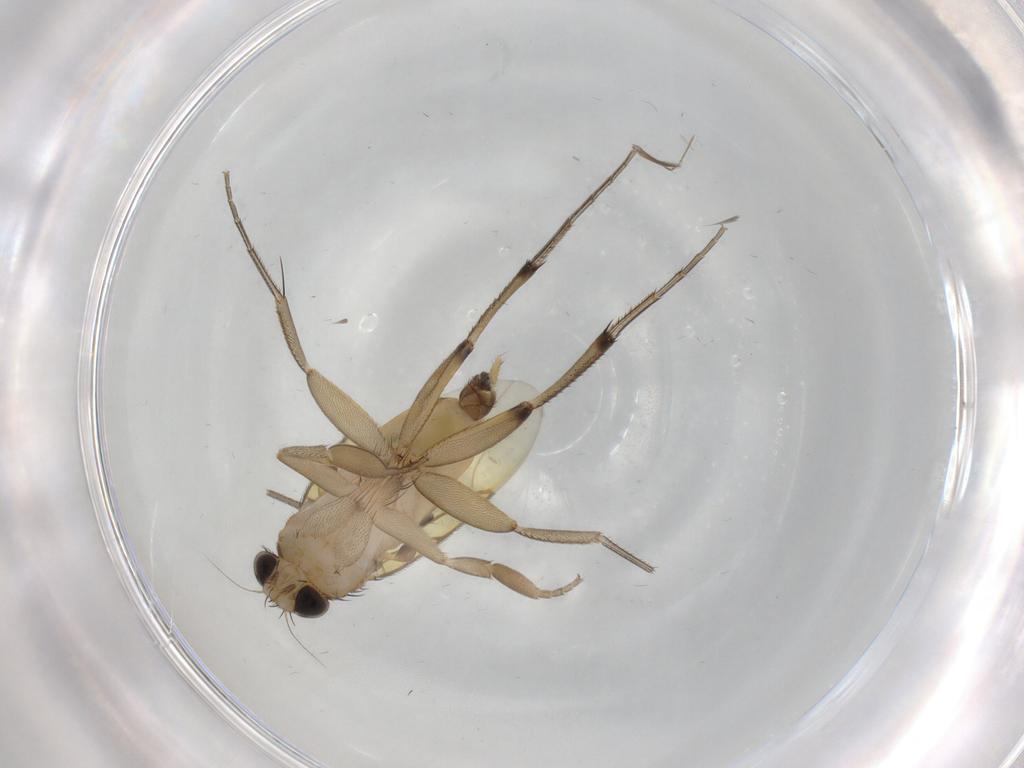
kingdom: Animalia
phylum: Arthropoda
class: Insecta
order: Diptera
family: Phoridae
